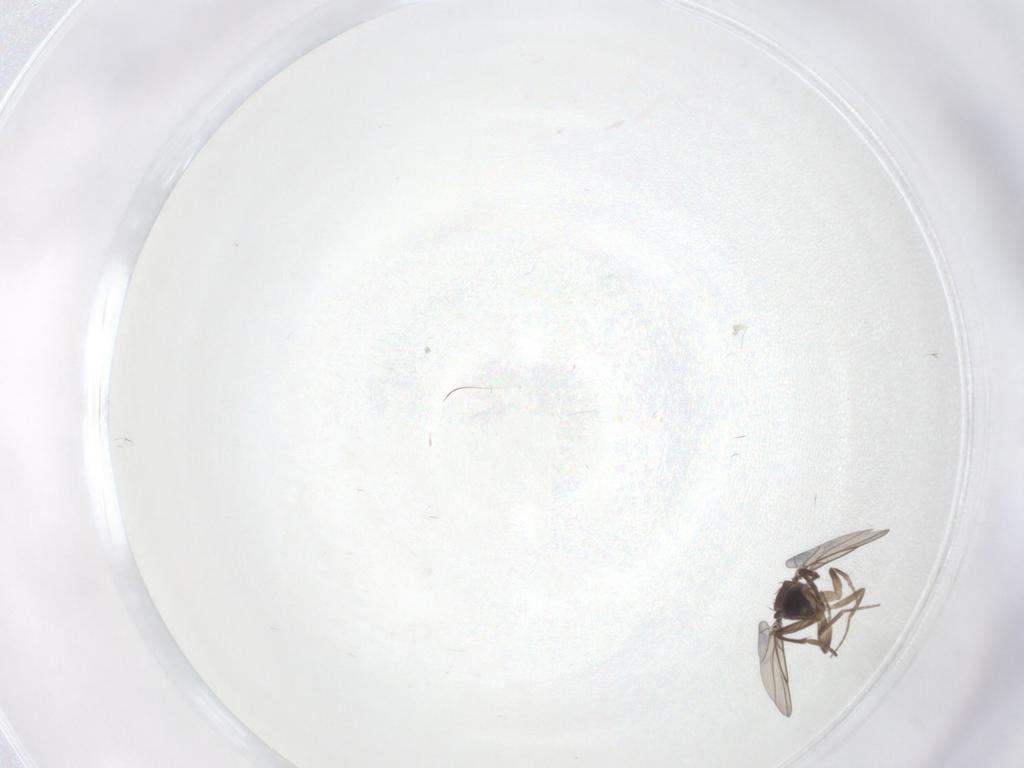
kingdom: Animalia
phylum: Arthropoda
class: Insecta
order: Diptera
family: Cecidomyiidae
